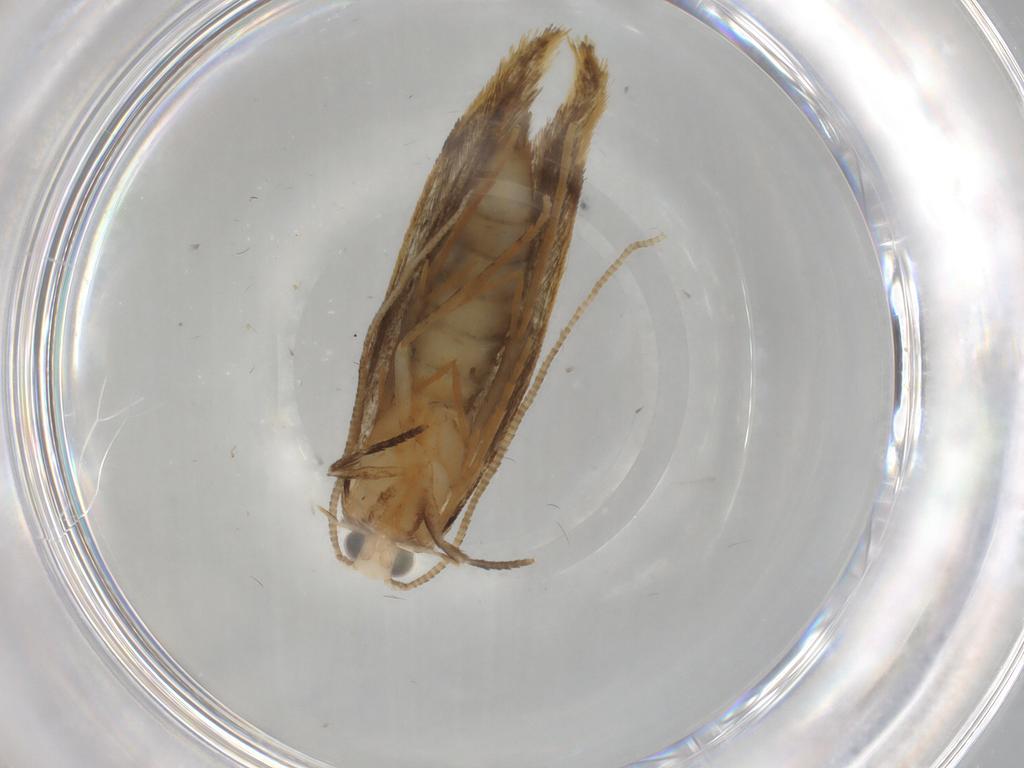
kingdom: Animalia
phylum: Arthropoda
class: Insecta
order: Lepidoptera
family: Tineidae
